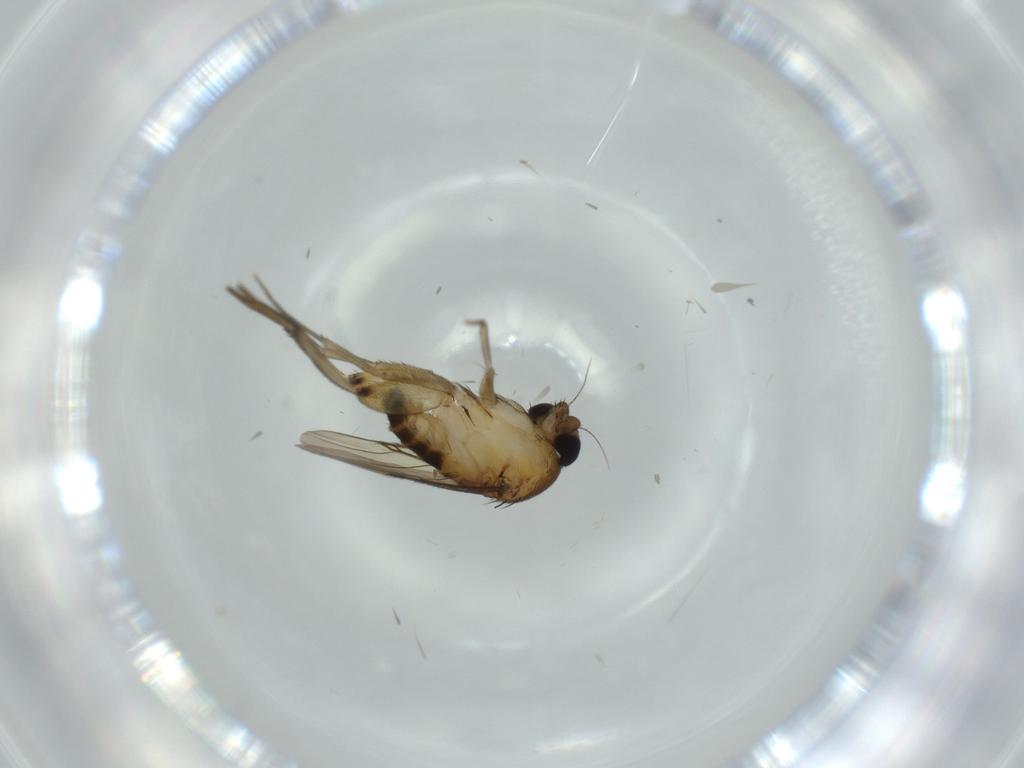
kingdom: Animalia
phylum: Arthropoda
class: Insecta
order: Diptera
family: Phoridae
